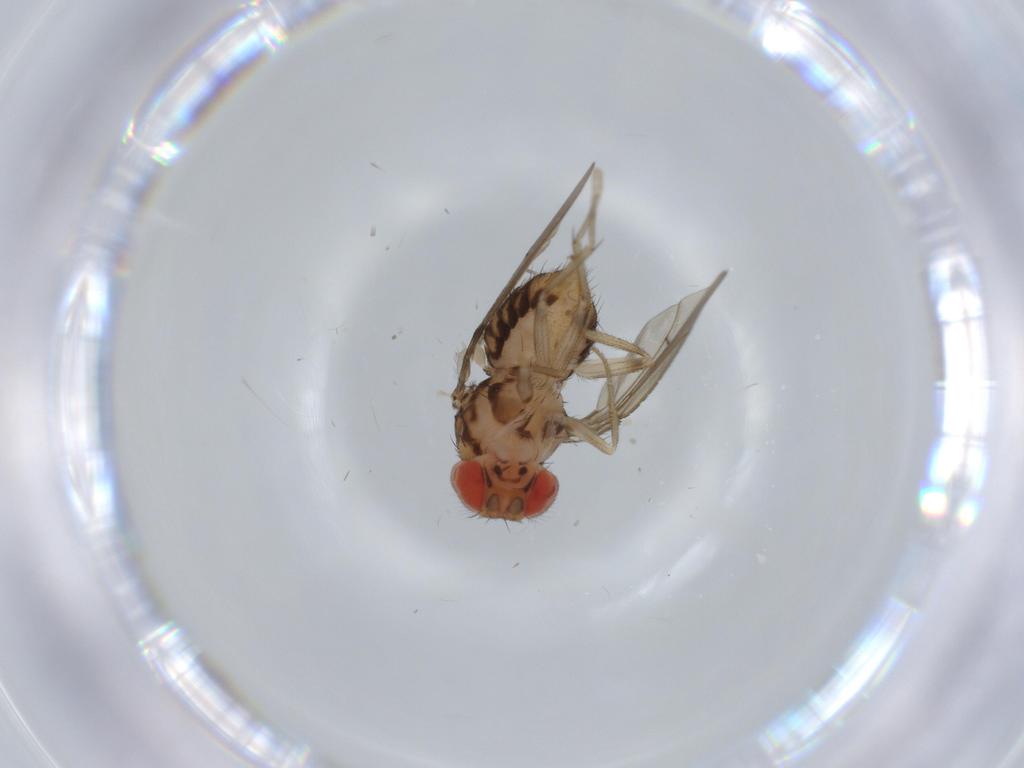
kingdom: Animalia
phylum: Arthropoda
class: Insecta
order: Diptera
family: Drosophilidae
